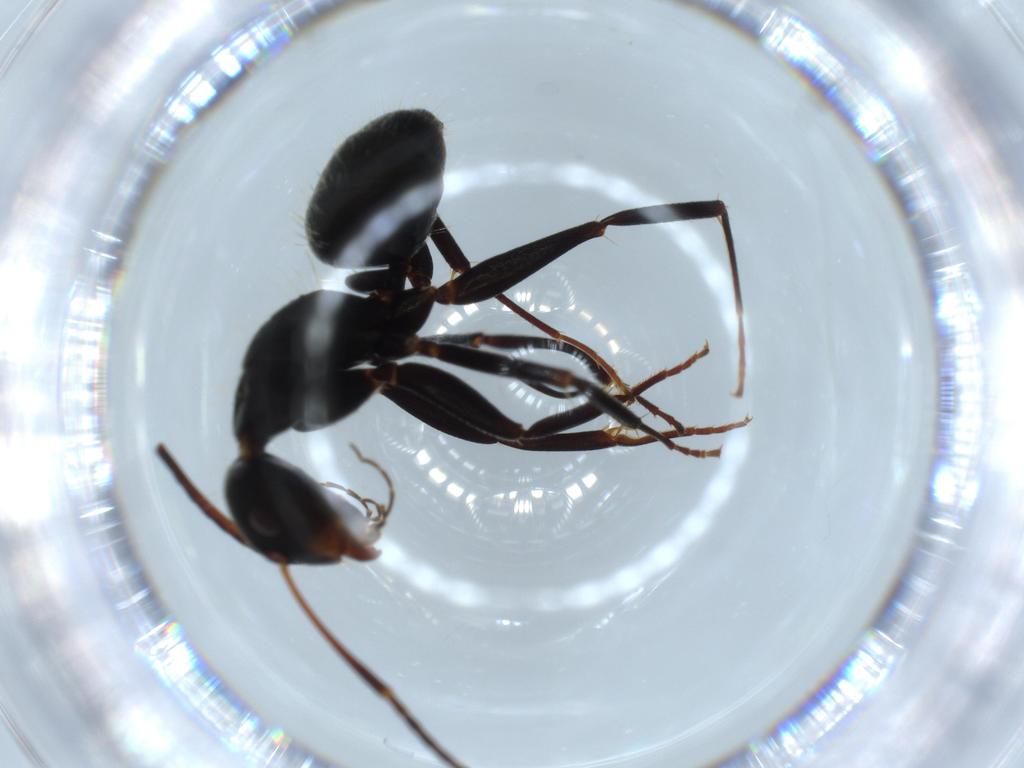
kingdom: Animalia
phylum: Arthropoda
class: Insecta
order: Hymenoptera
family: Formicidae
